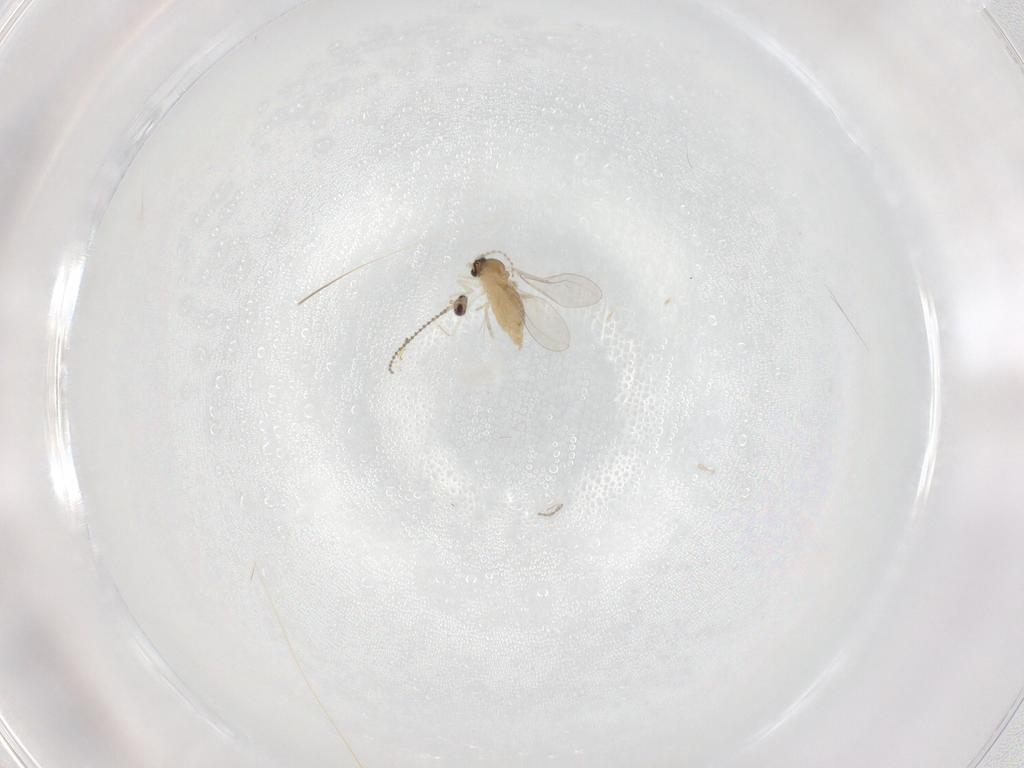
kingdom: Animalia
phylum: Arthropoda
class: Insecta
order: Diptera
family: Cecidomyiidae
